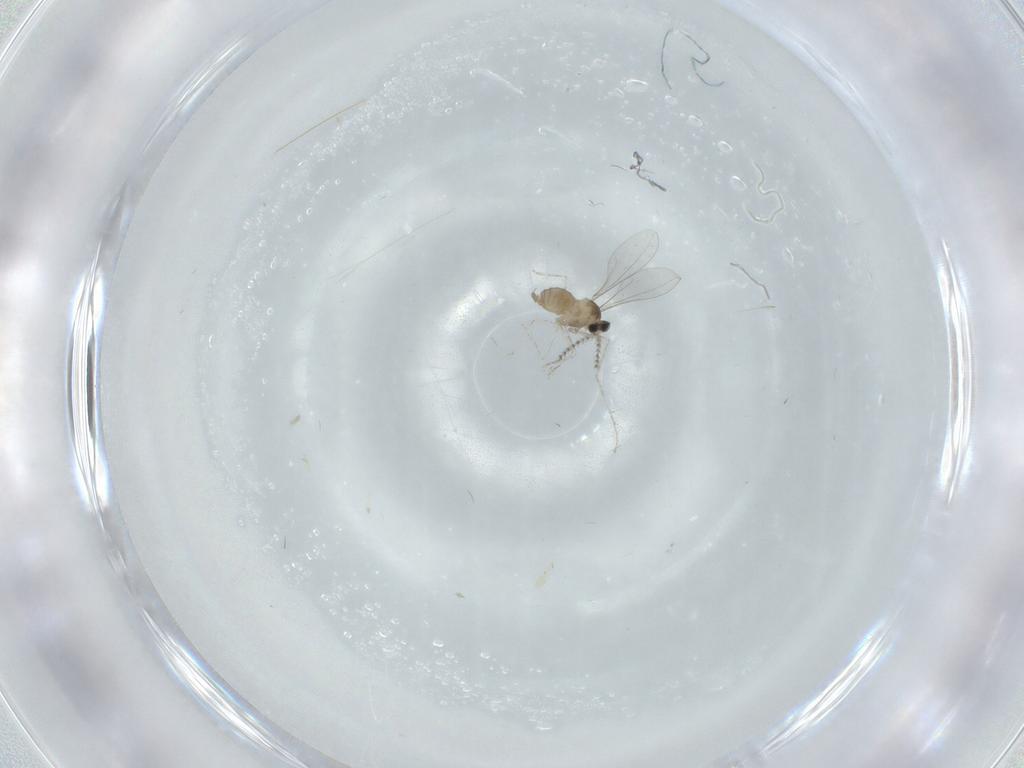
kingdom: Animalia
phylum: Arthropoda
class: Insecta
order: Diptera
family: Cecidomyiidae
